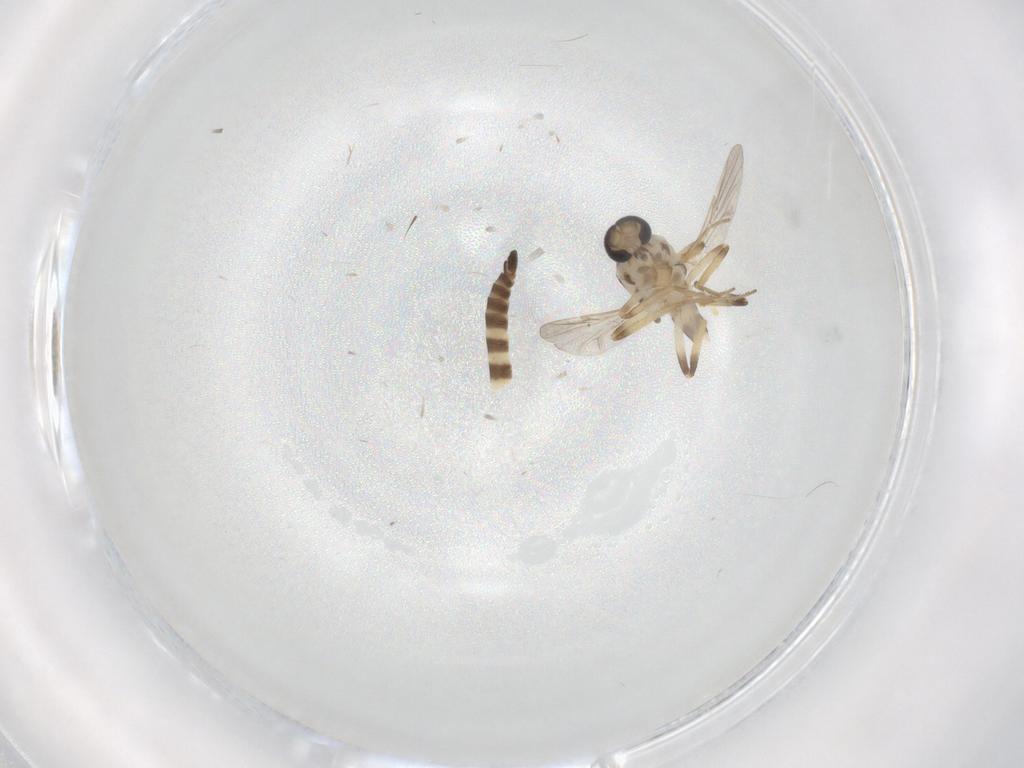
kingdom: Animalia
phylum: Arthropoda
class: Insecta
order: Diptera
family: Ceratopogonidae
